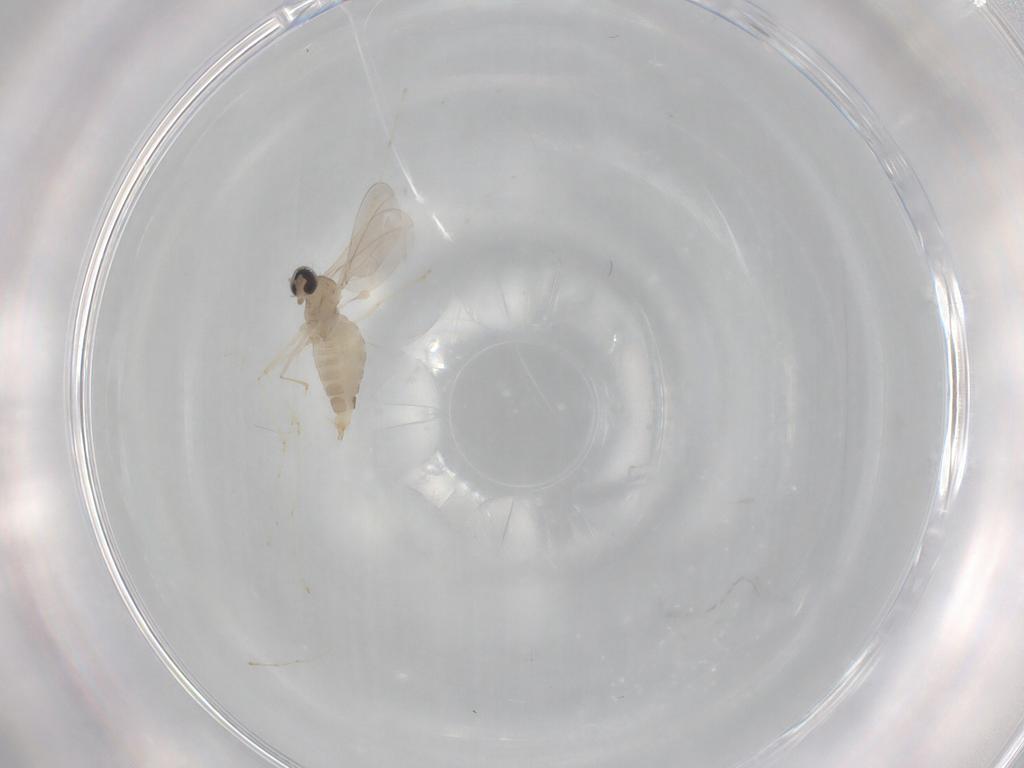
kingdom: Animalia
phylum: Arthropoda
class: Insecta
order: Diptera
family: Cecidomyiidae
